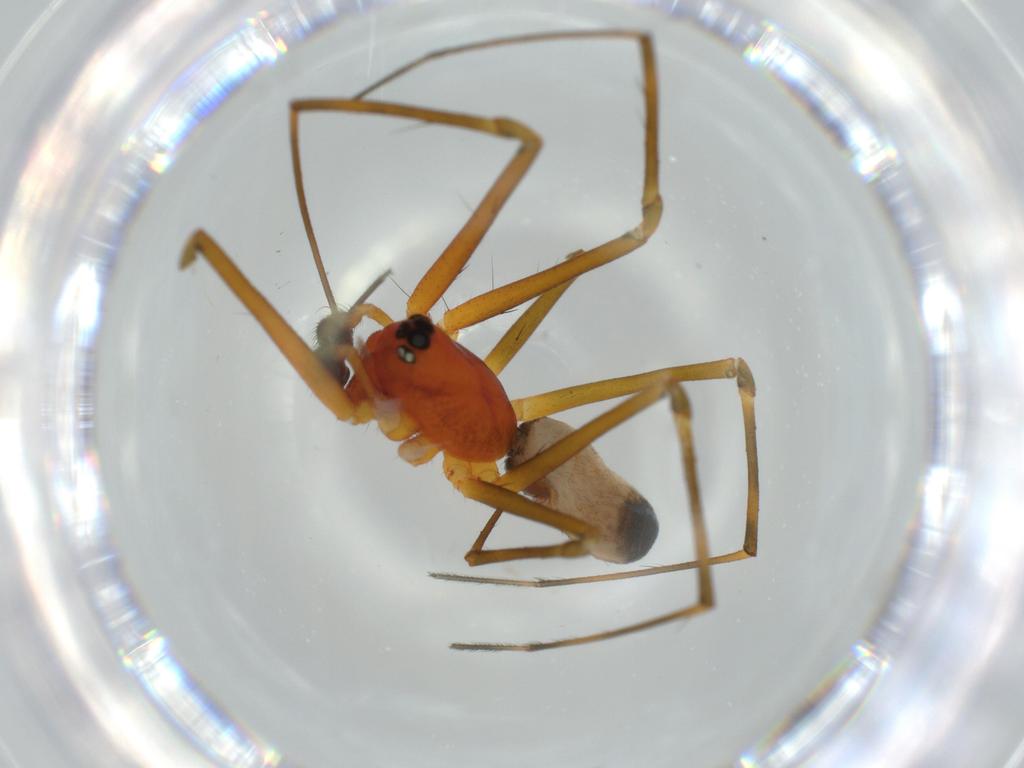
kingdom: Animalia
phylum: Arthropoda
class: Arachnida
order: Araneae
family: Linyphiidae
